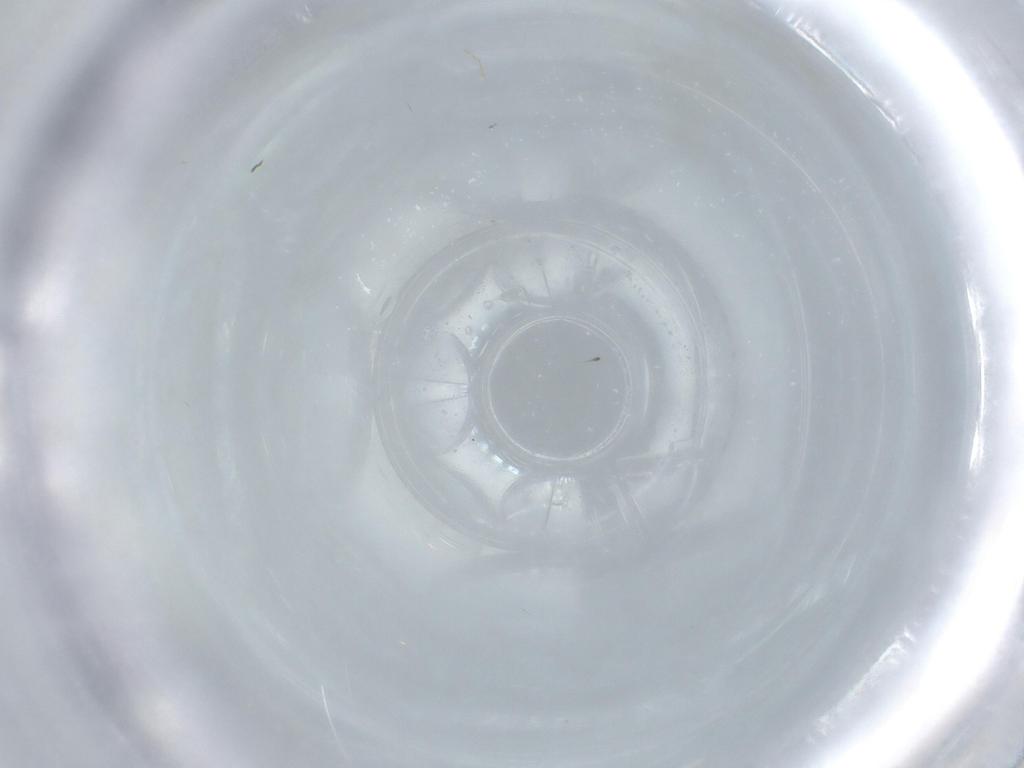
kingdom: Animalia
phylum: Arthropoda
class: Insecta
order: Diptera
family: Cecidomyiidae
